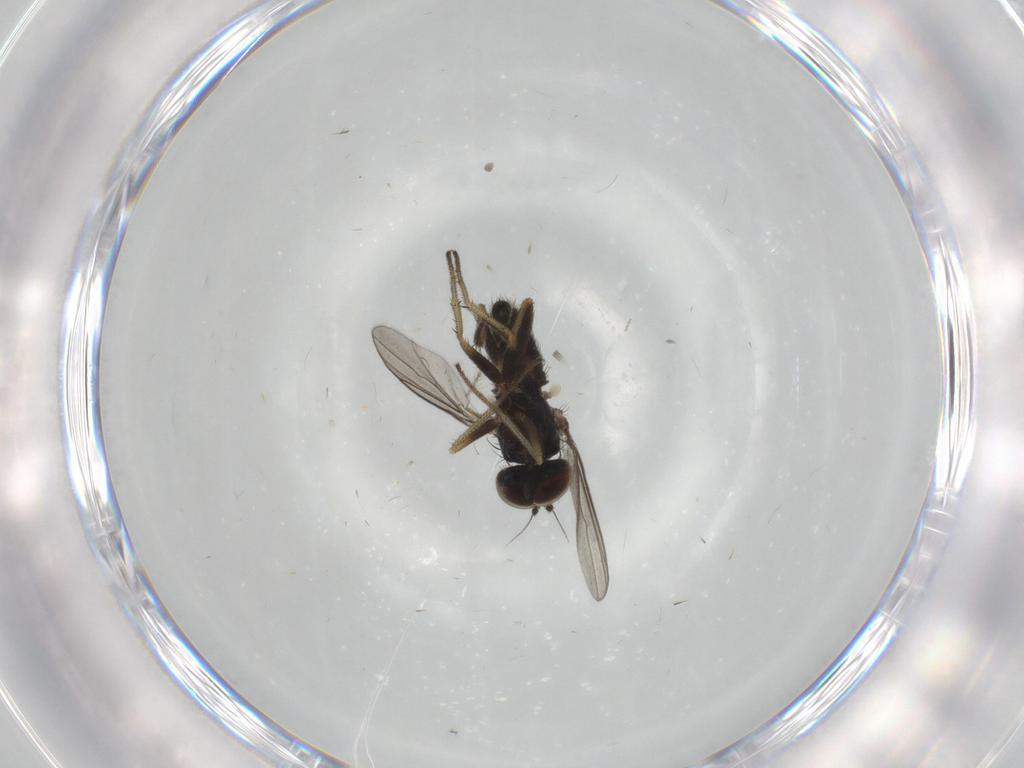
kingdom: Animalia
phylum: Arthropoda
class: Insecta
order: Diptera
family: Corethrellidae
